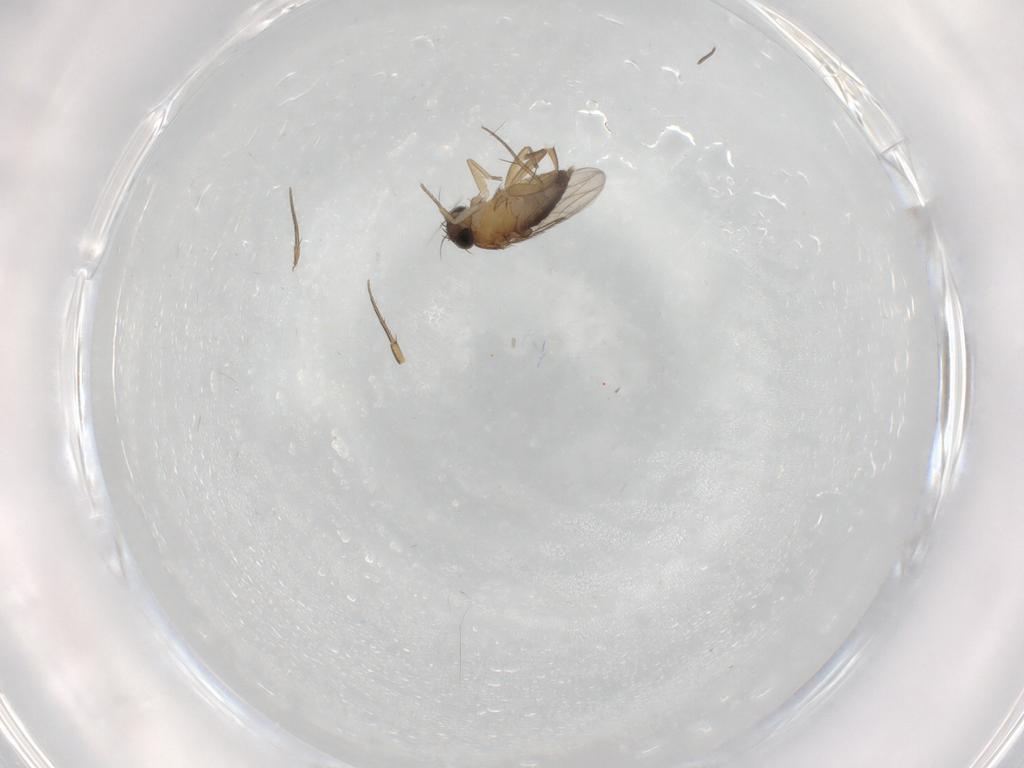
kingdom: Animalia
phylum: Arthropoda
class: Insecta
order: Diptera
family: Phoridae
